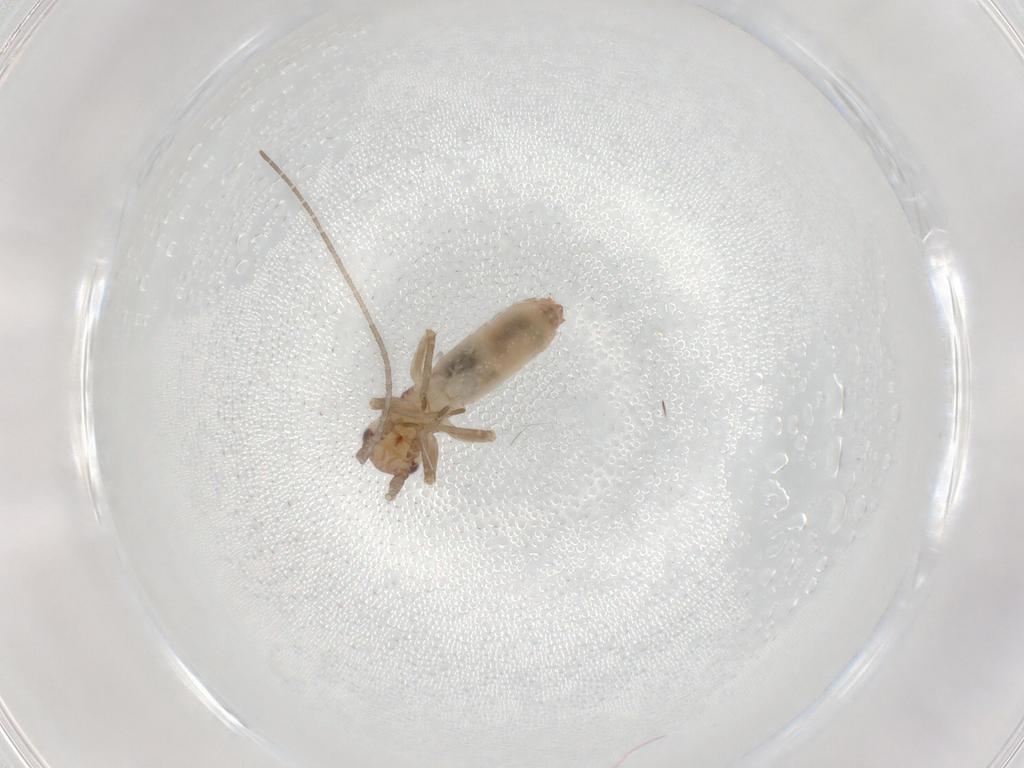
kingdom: Animalia
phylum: Arthropoda
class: Insecta
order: Orthoptera
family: Mogoplistidae
